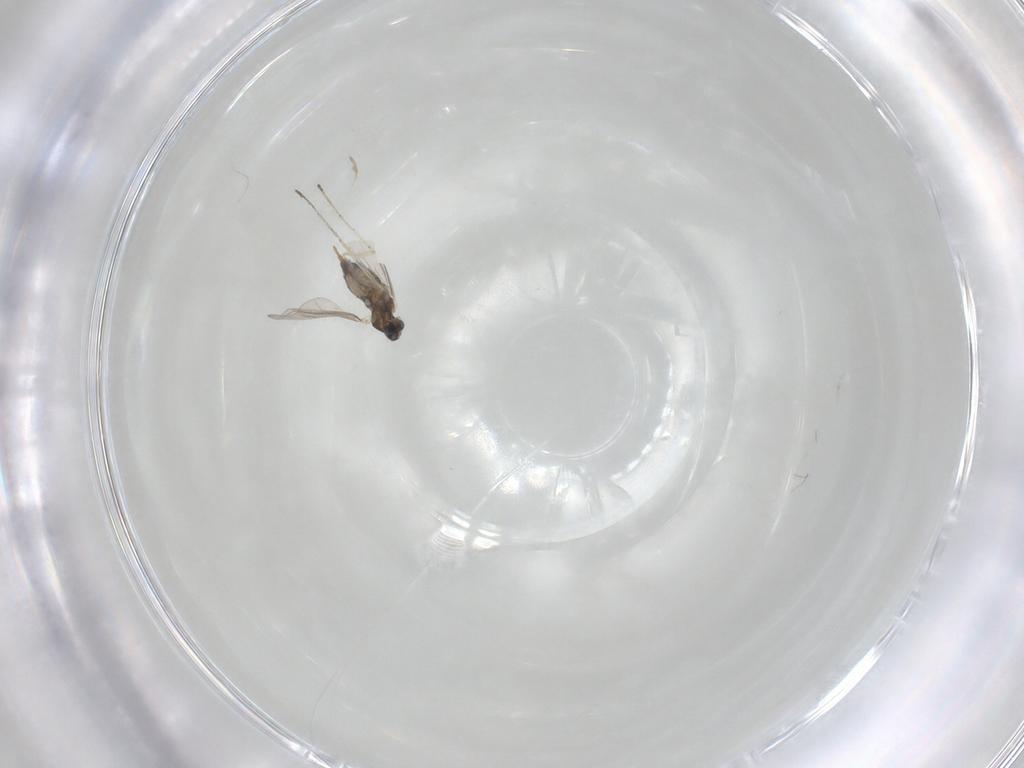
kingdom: Animalia
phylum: Arthropoda
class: Insecta
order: Diptera
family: Cecidomyiidae
